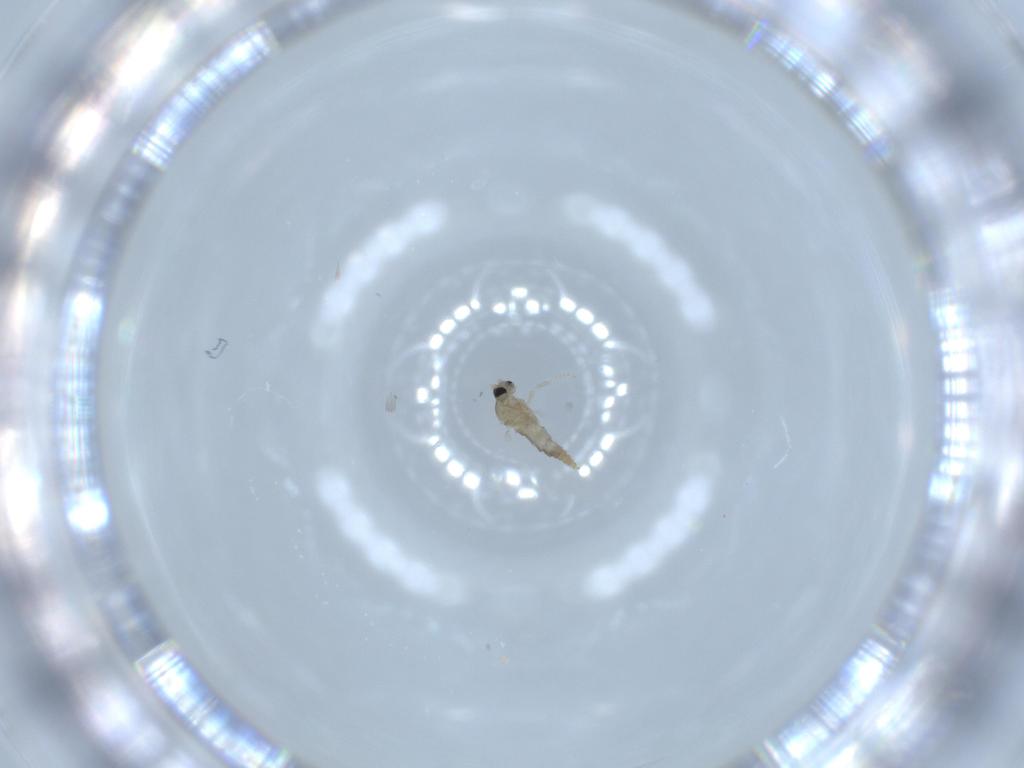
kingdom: Animalia
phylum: Arthropoda
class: Insecta
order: Diptera
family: Cecidomyiidae
